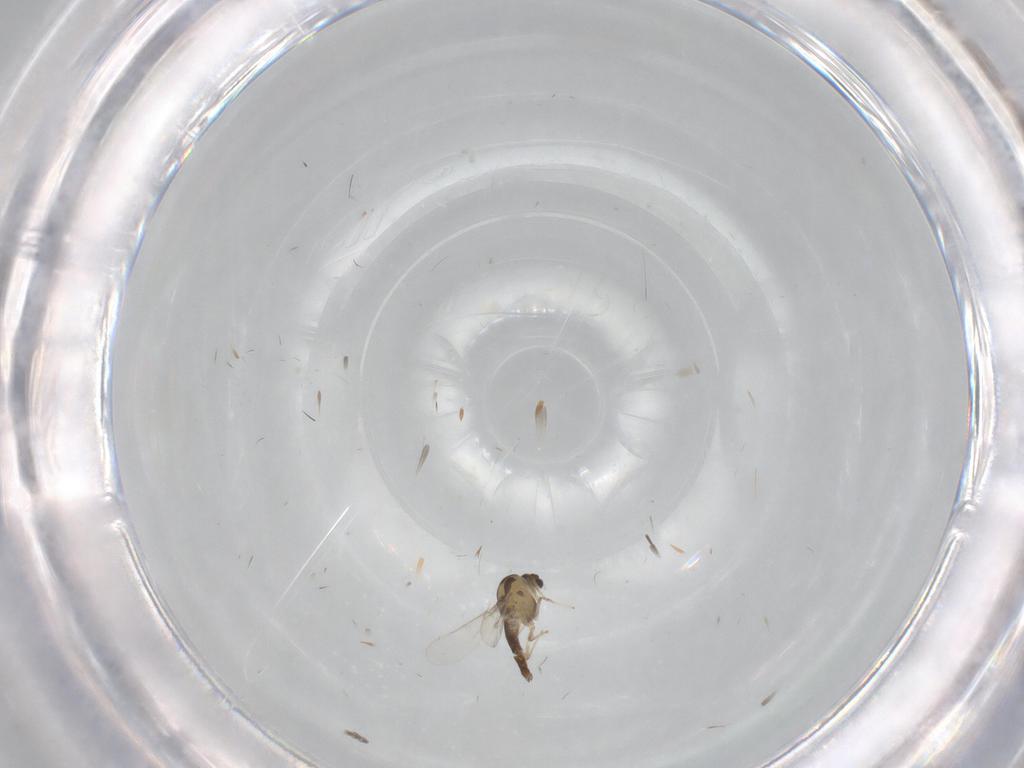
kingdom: Animalia
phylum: Arthropoda
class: Insecta
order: Diptera
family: Chironomidae
